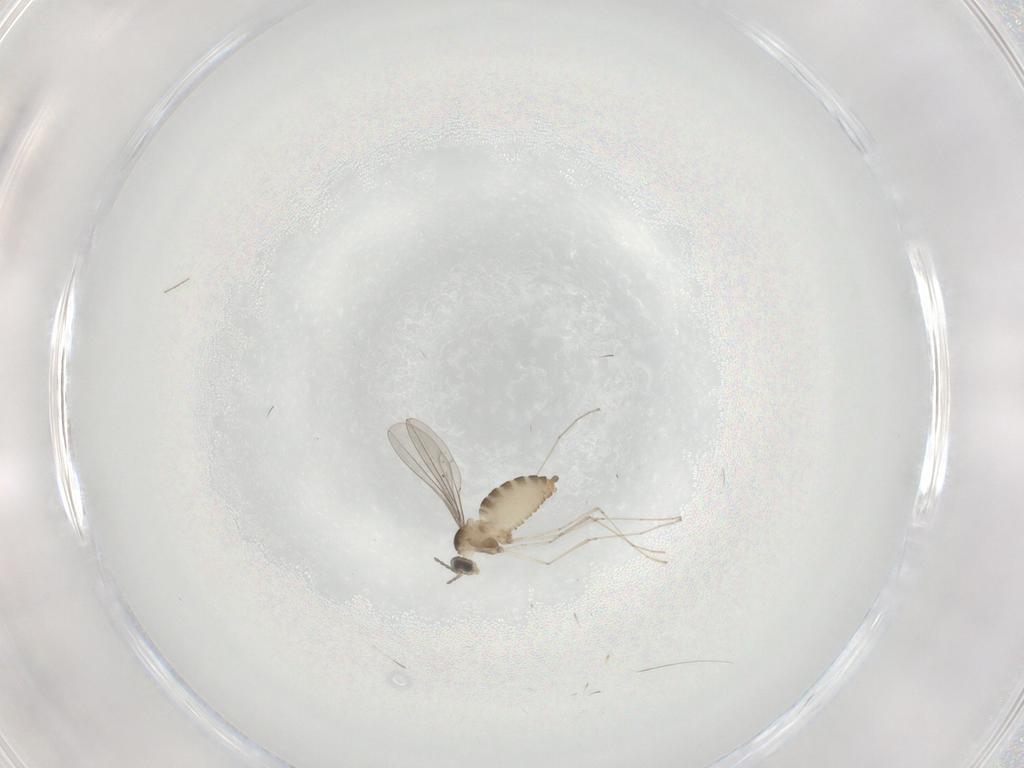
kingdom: Animalia
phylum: Arthropoda
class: Insecta
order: Diptera
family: Cecidomyiidae
